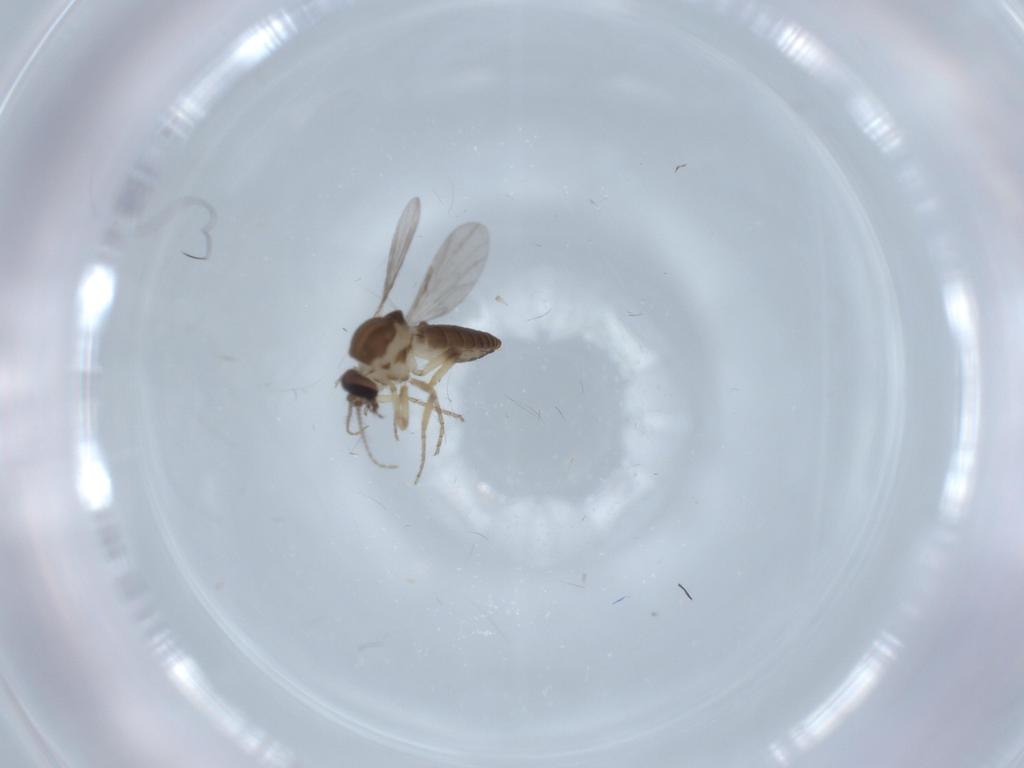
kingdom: Animalia
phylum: Arthropoda
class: Insecta
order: Diptera
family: Ceratopogonidae
